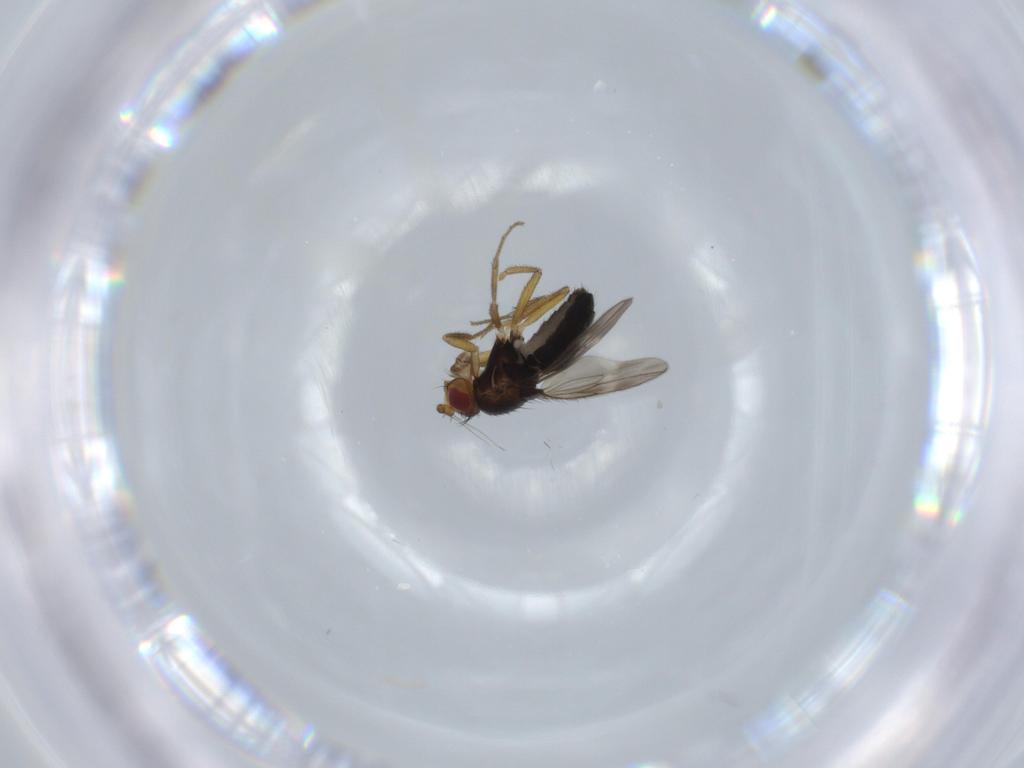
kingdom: Animalia
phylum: Arthropoda
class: Insecta
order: Diptera
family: Sphaeroceridae
